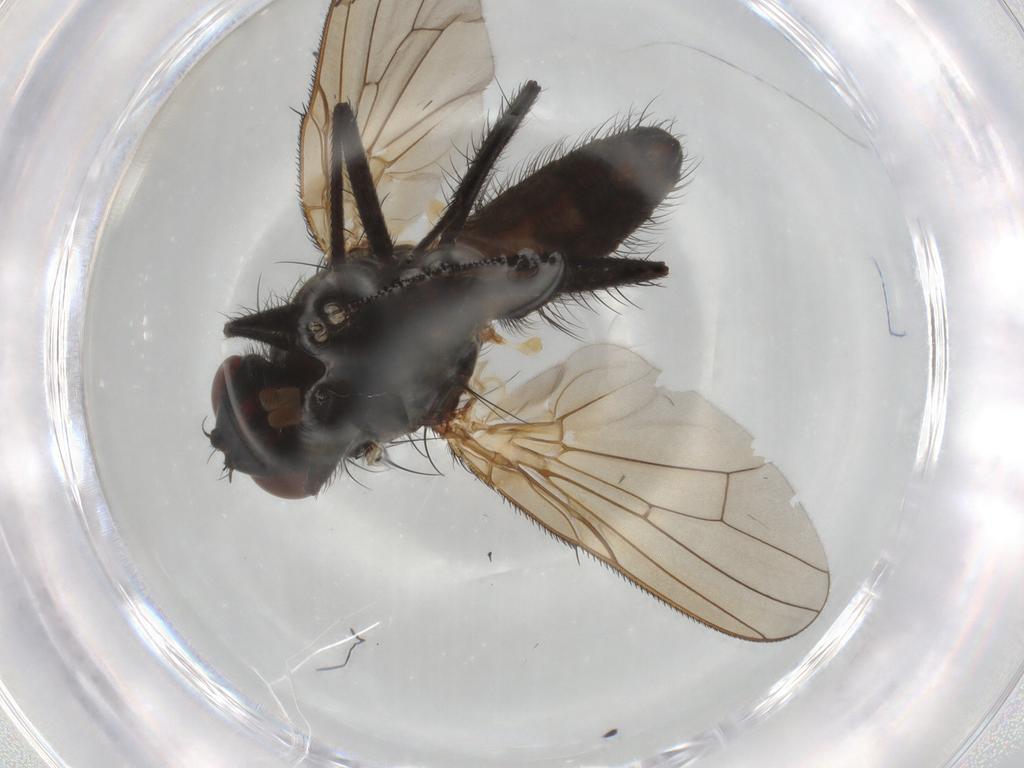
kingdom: Animalia
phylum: Arthropoda
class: Insecta
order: Diptera
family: Anthomyiidae
